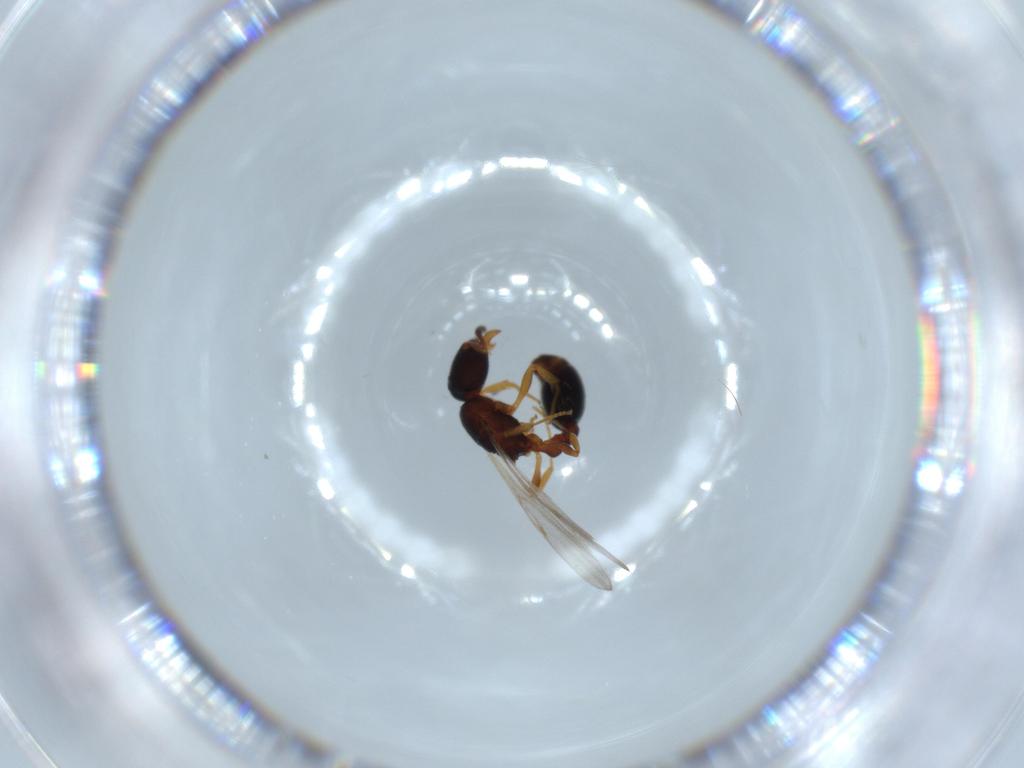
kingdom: Animalia
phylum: Arthropoda
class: Insecta
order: Hymenoptera
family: Formicidae
